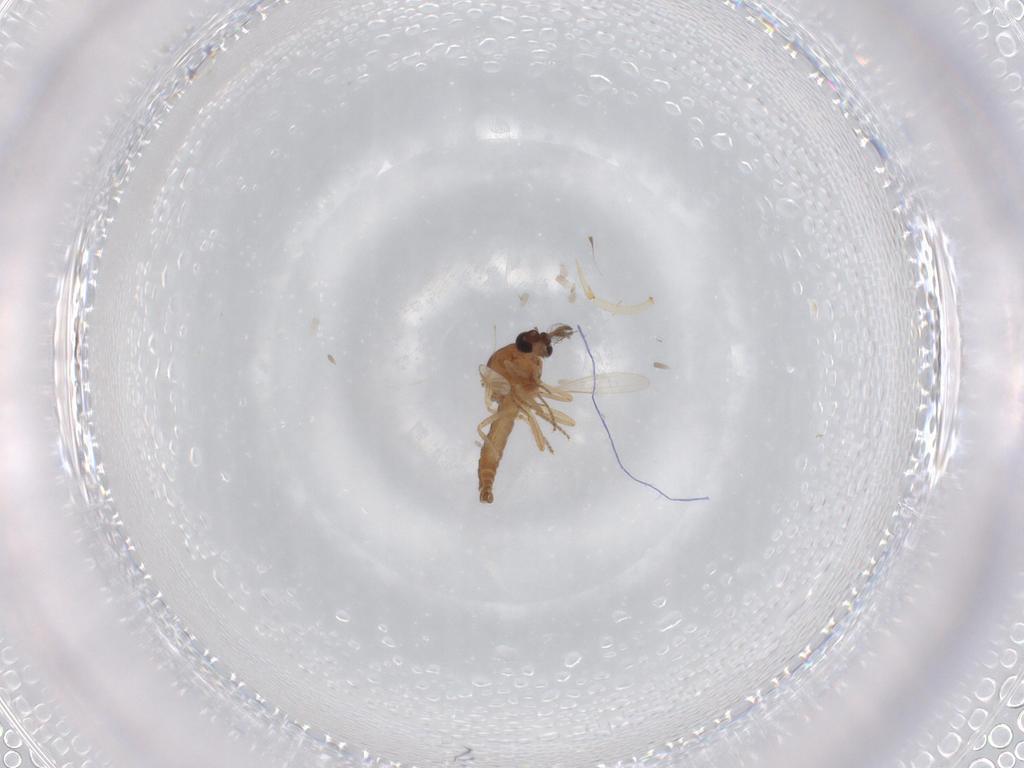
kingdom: Animalia
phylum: Arthropoda
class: Insecta
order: Diptera
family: Ceratopogonidae
